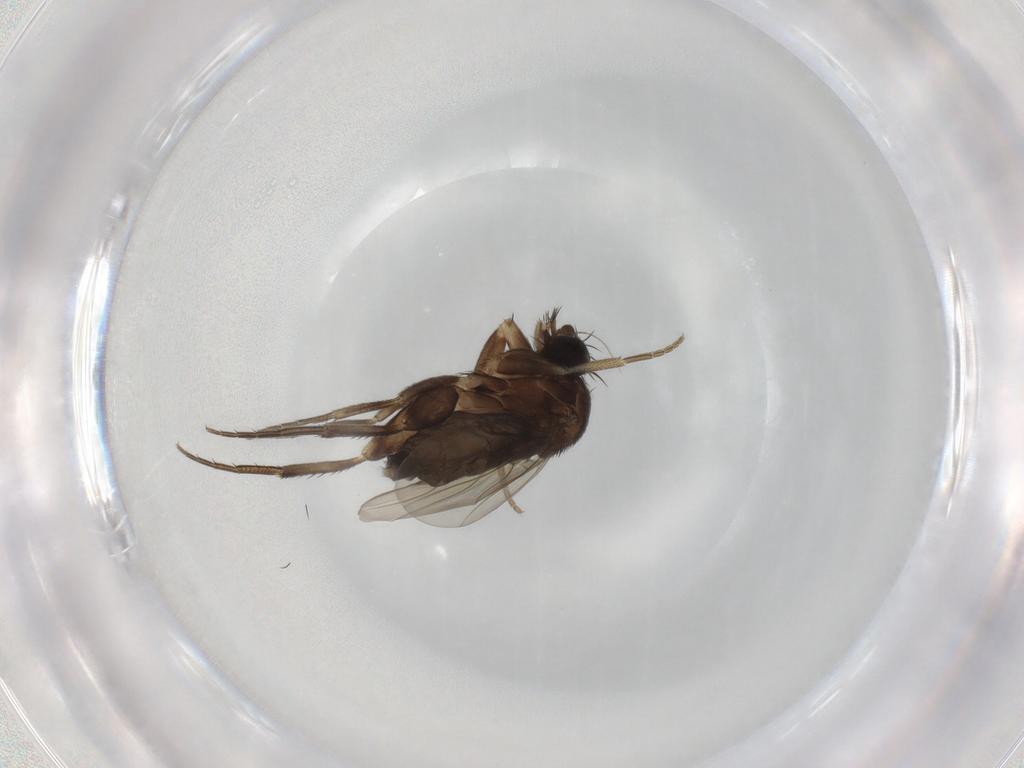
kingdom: Animalia
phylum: Arthropoda
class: Insecta
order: Diptera
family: Phoridae
